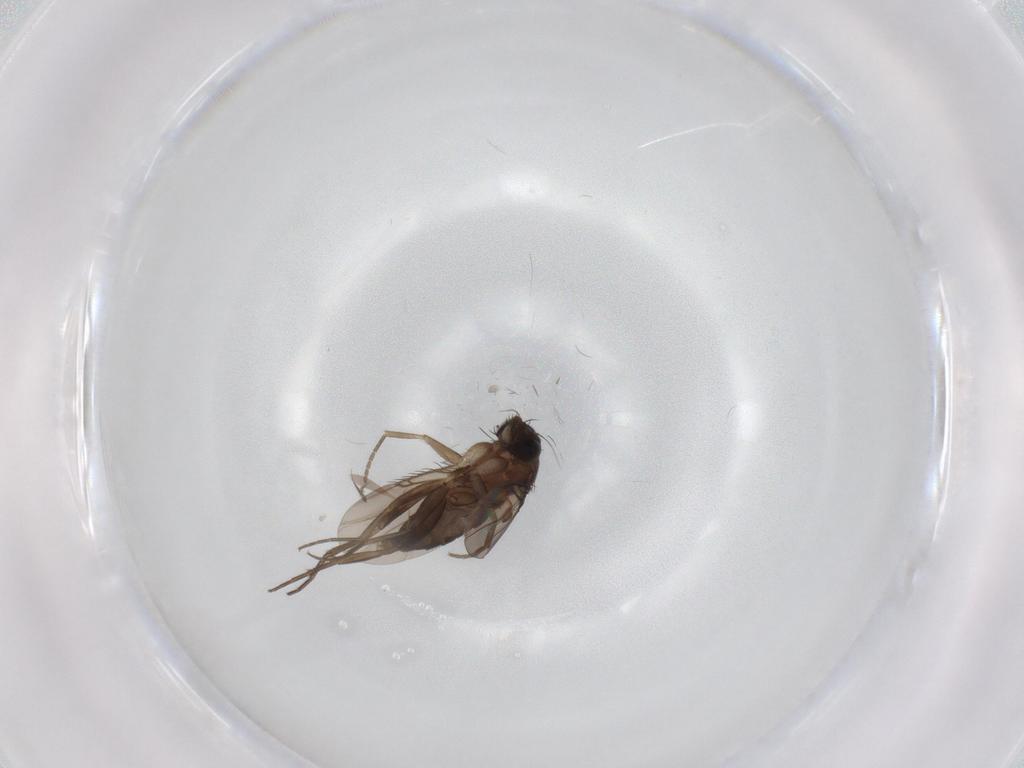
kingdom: Animalia
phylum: Arthropoda
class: Insecta
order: Diptera
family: Phoridae
